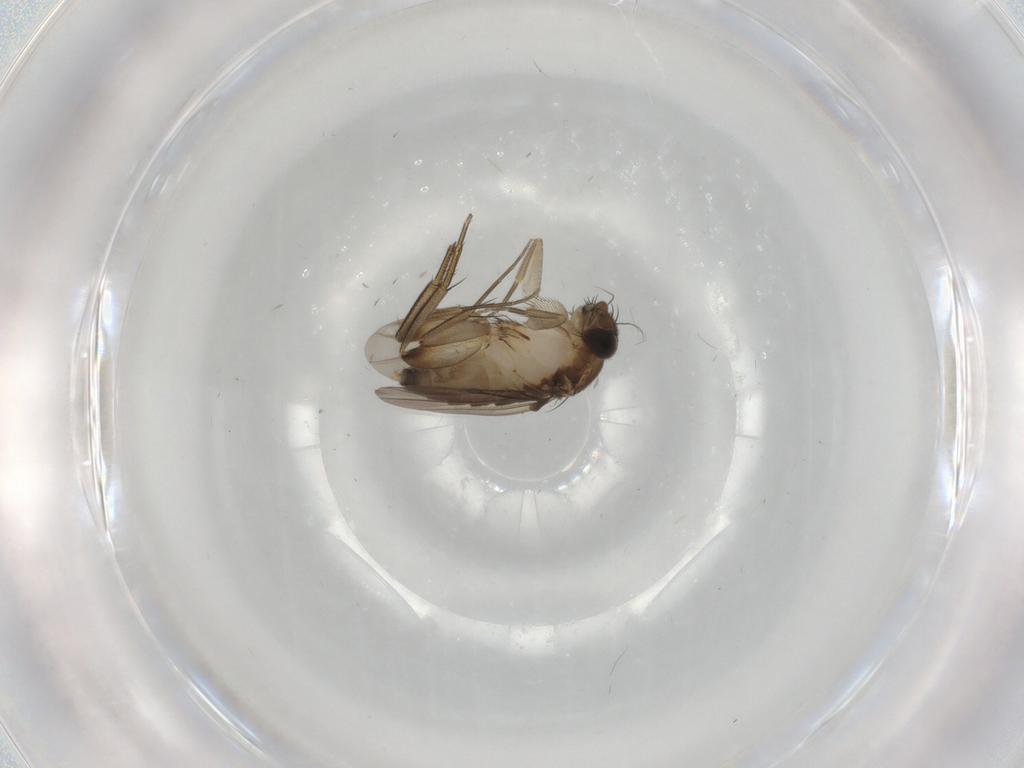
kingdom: Animalia
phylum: Arthropoda
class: Insecta
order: Diptera
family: Phoridae
